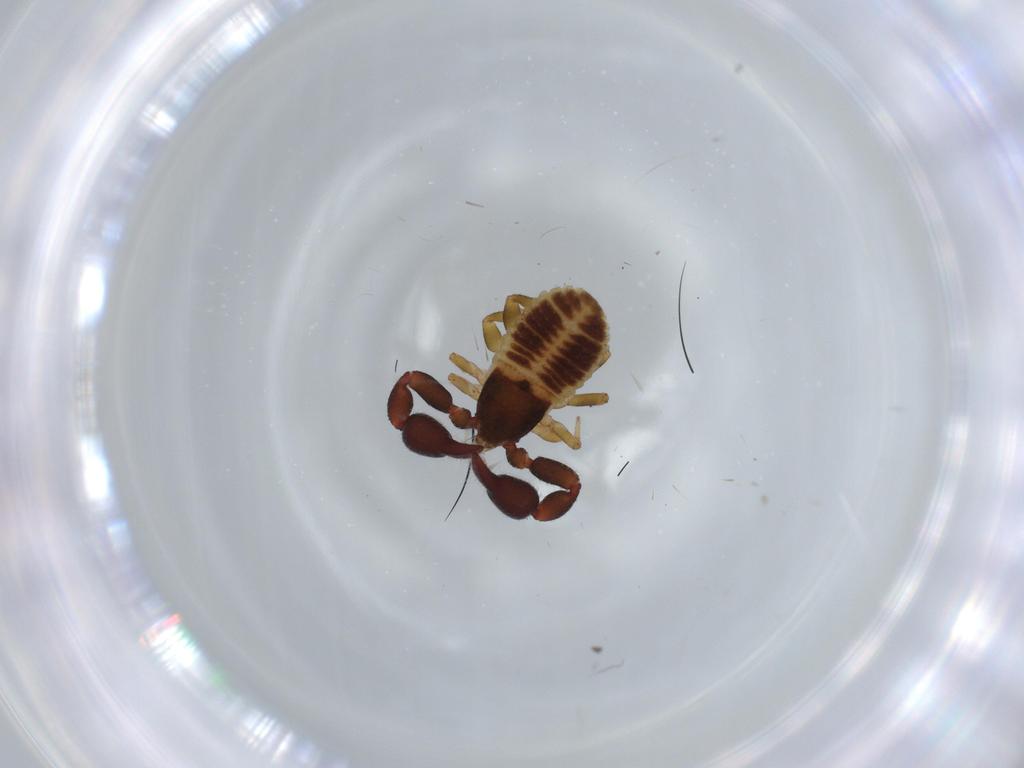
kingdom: Animalia
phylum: Arthropoda
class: Arachnida
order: Pseudoscorpiones
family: Chernetidae
